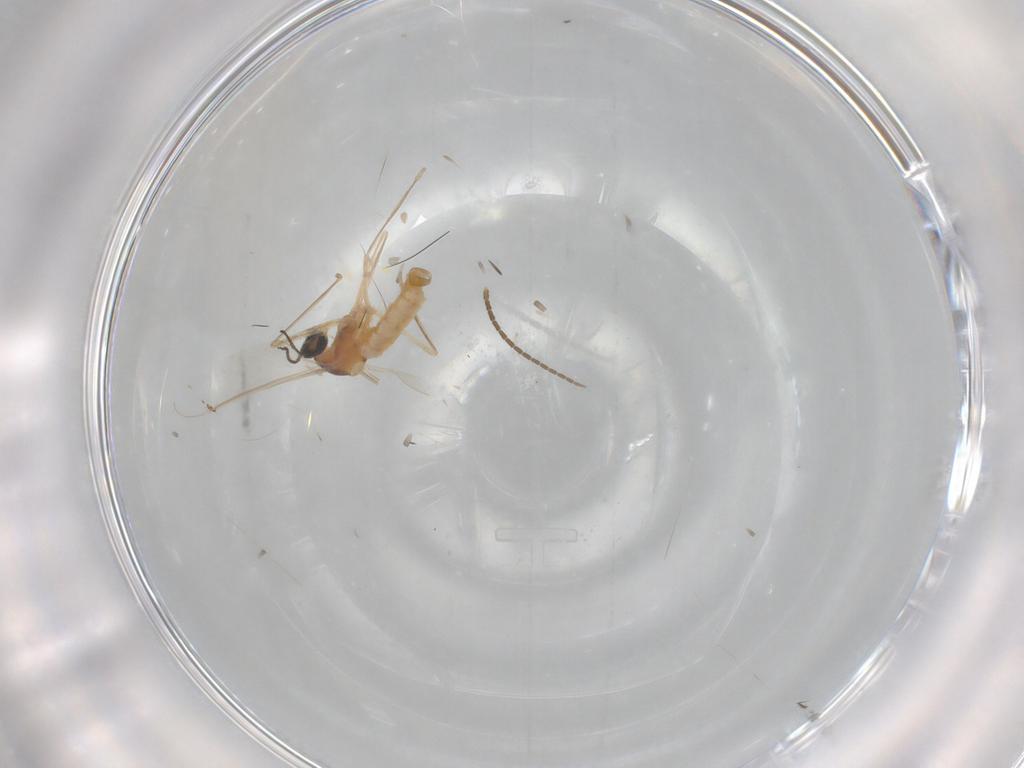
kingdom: Animalia
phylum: Arthropoda
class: Insecta
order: Diptera
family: Cecidomyiidae
